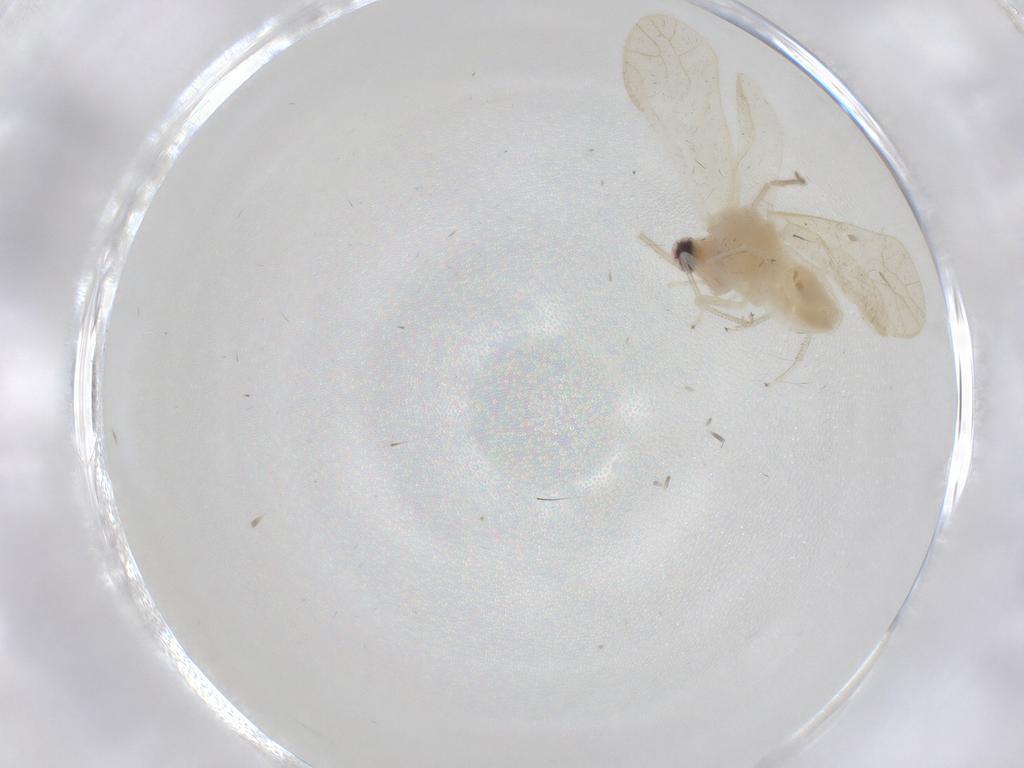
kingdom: Animalia
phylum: Arthropoda
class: Insecta
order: Psocodea
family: Caeciliusidae
